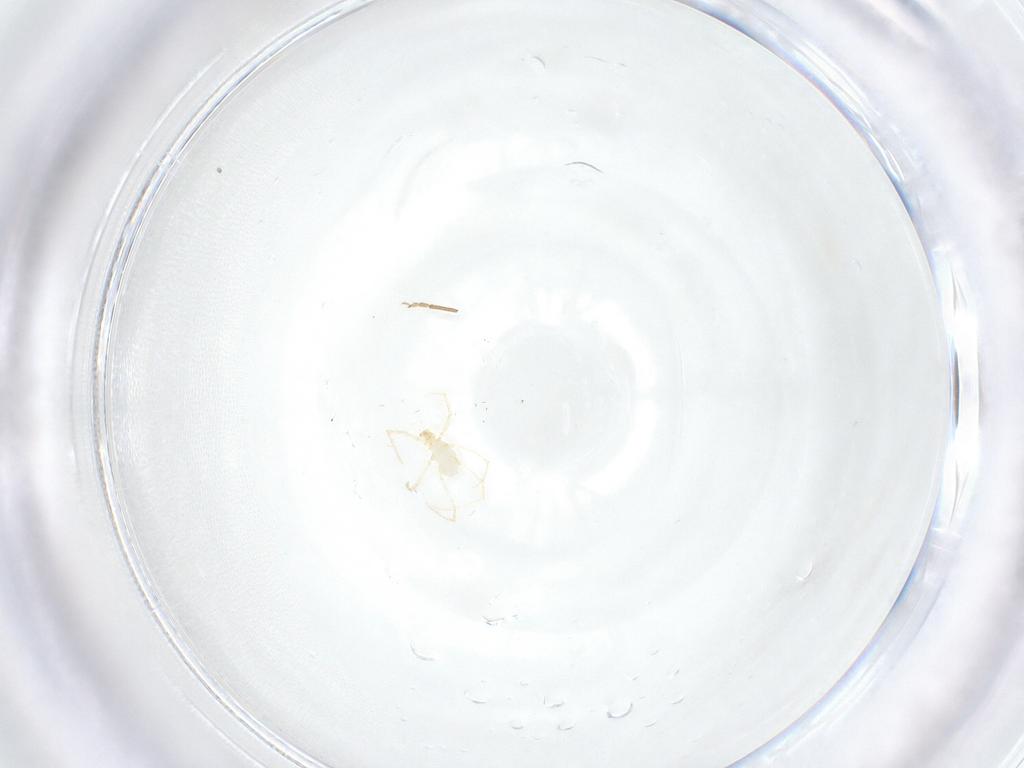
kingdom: Animalia
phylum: Arthropoda
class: Arachnida
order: Trombidiformes
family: Erythraeidae
